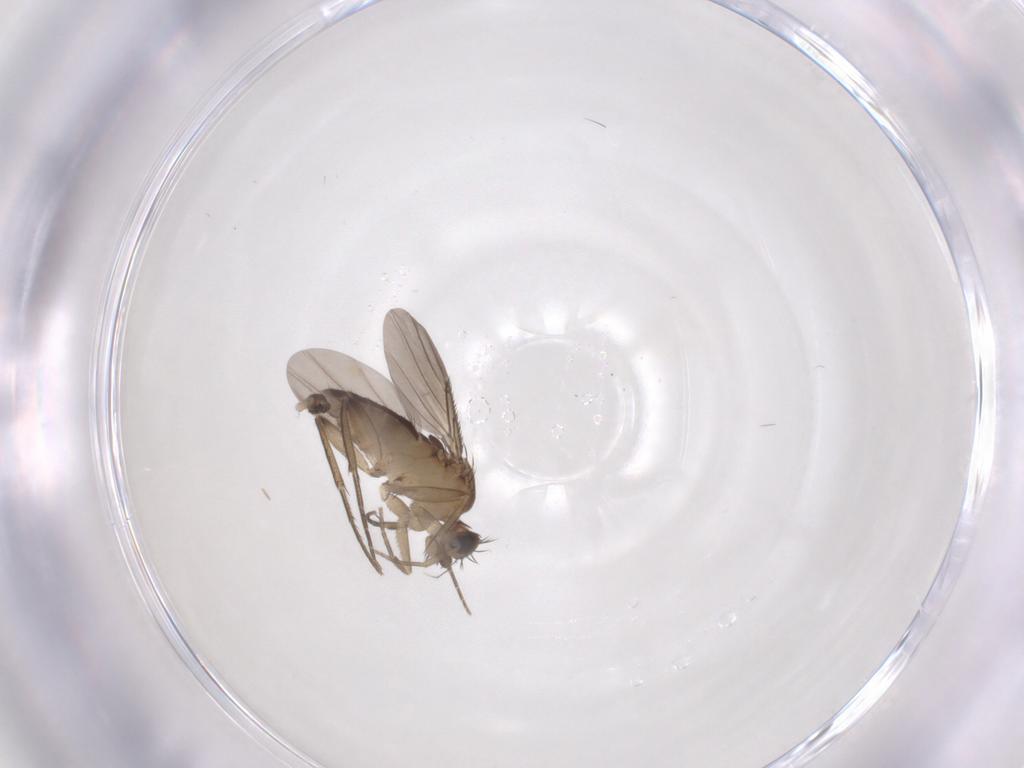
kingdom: Animalia
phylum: Arthropoda
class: Insecta
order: Diptera
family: Phoridae
